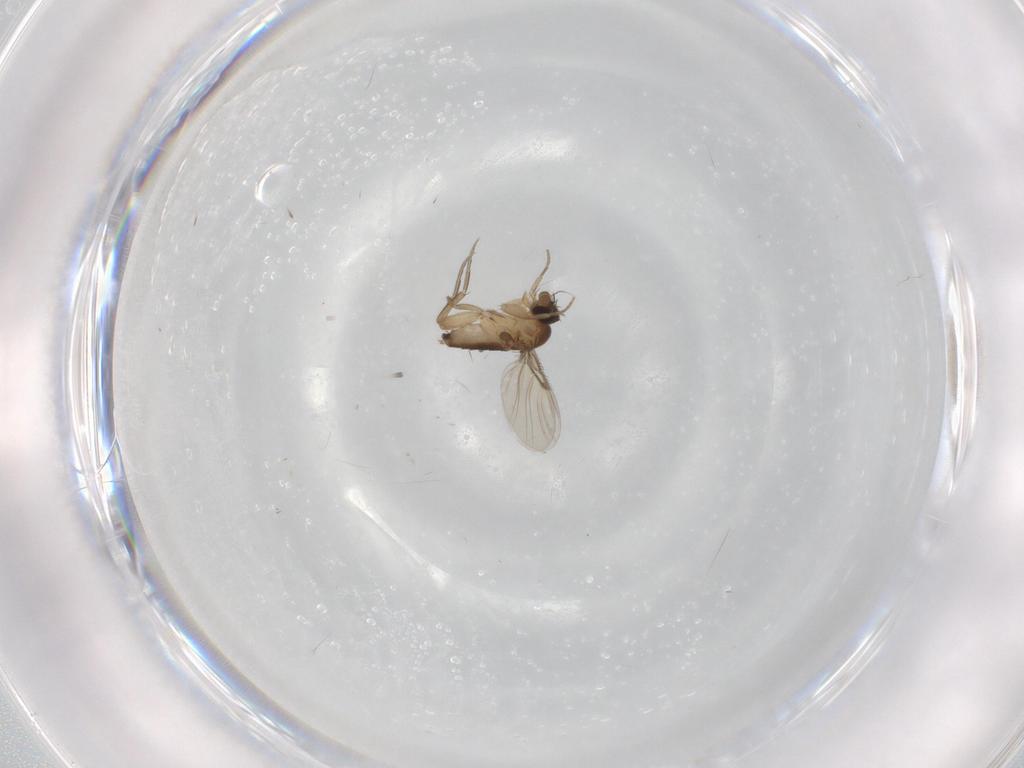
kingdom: Animalia
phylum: Arthropoda
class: Insecta
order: Diptera
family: Phoridae
